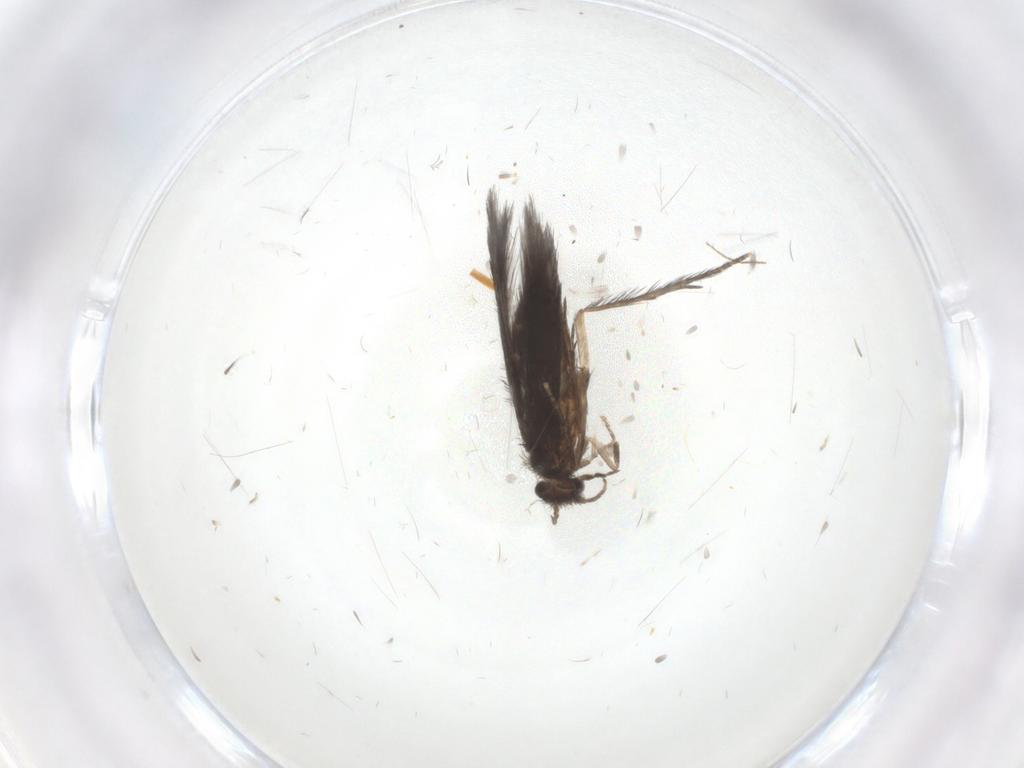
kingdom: Animalia
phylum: Arthropoda
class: Insecta
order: Trichoptera
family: Hydroptilidae
